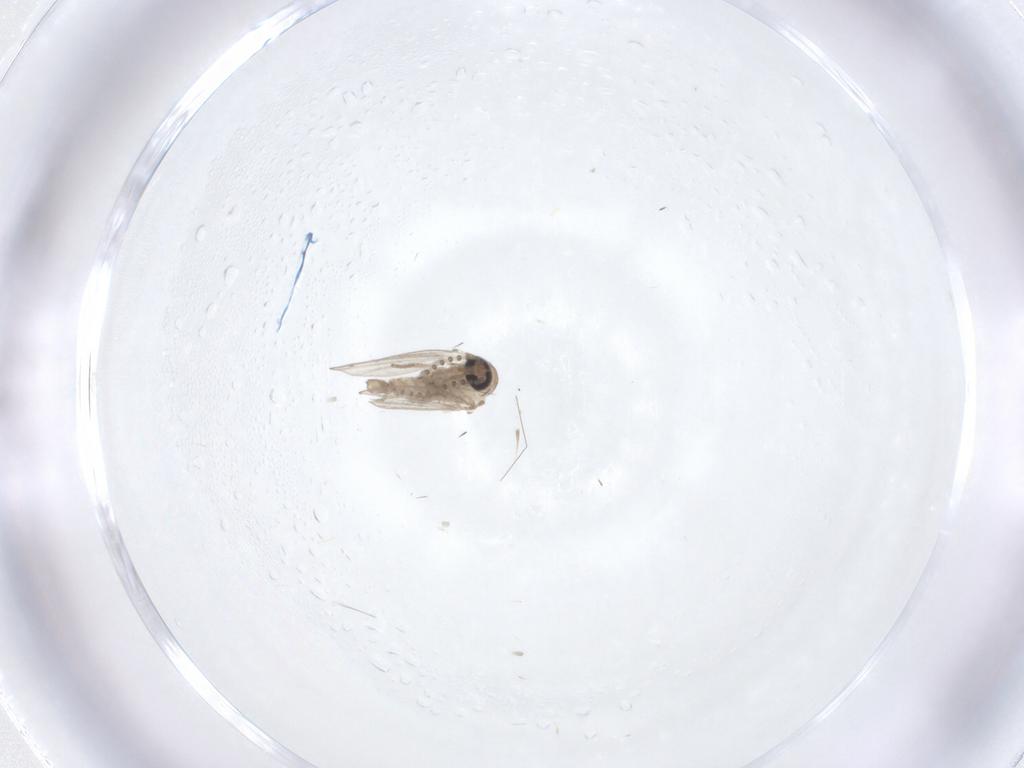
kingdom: Animalia
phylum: Arthropoda
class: Insecta
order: Diptera
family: Psychodidae
